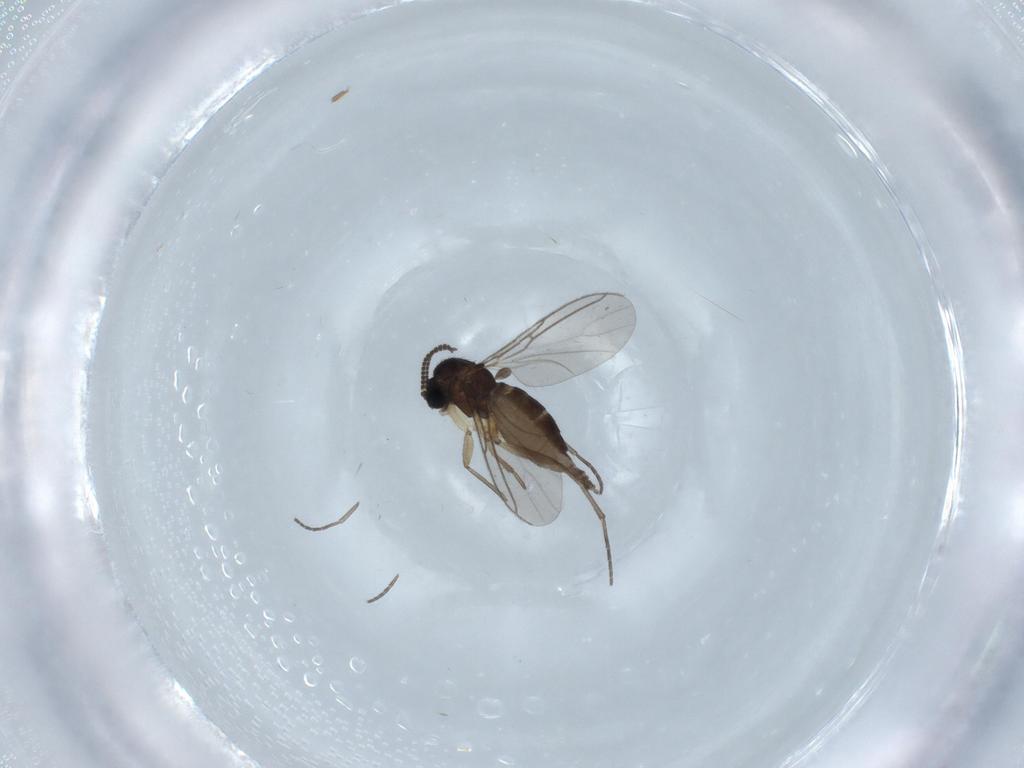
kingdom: Animalia
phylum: Arthropoda
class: Insecta
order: Diptera
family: Sciaridae
